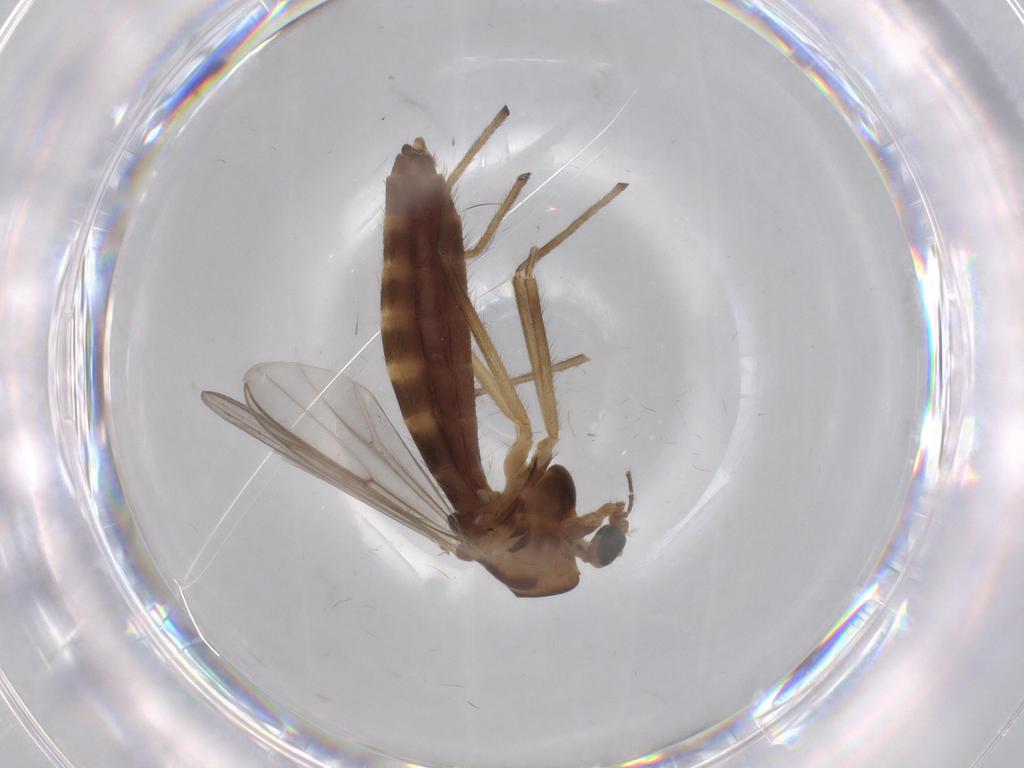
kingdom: Animalia
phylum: Arthropoda
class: Insecta
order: Diptera
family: Chironomidae
